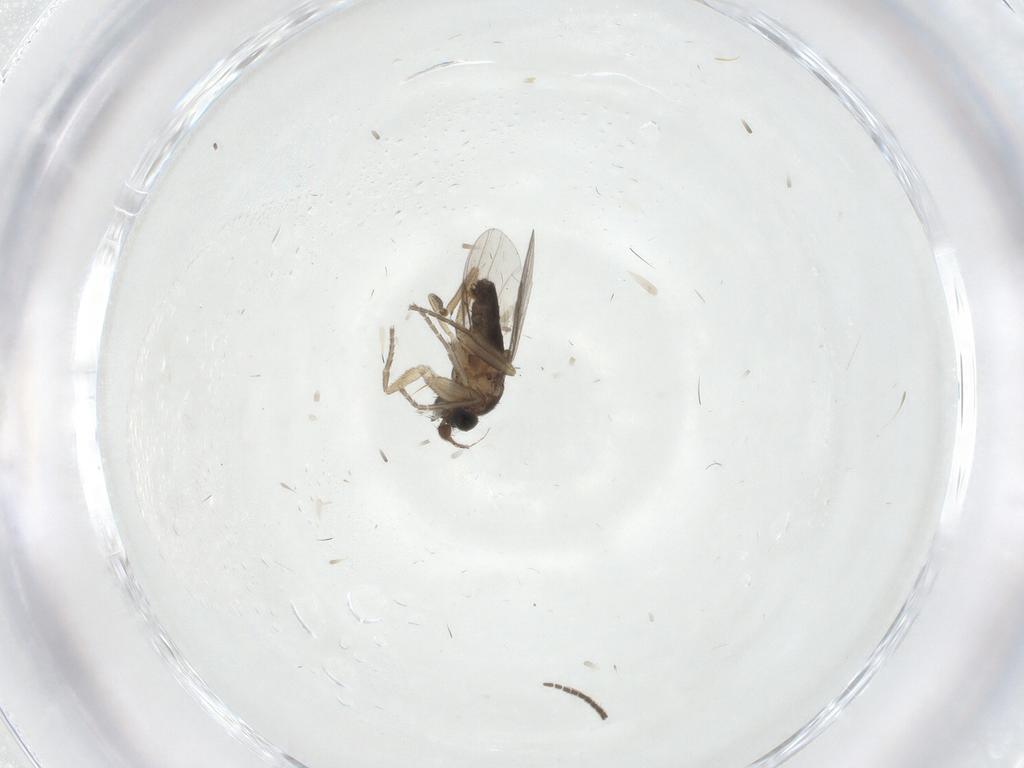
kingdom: Animalia
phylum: Arthropoda
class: Insecta
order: Diptera
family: Phoridae
